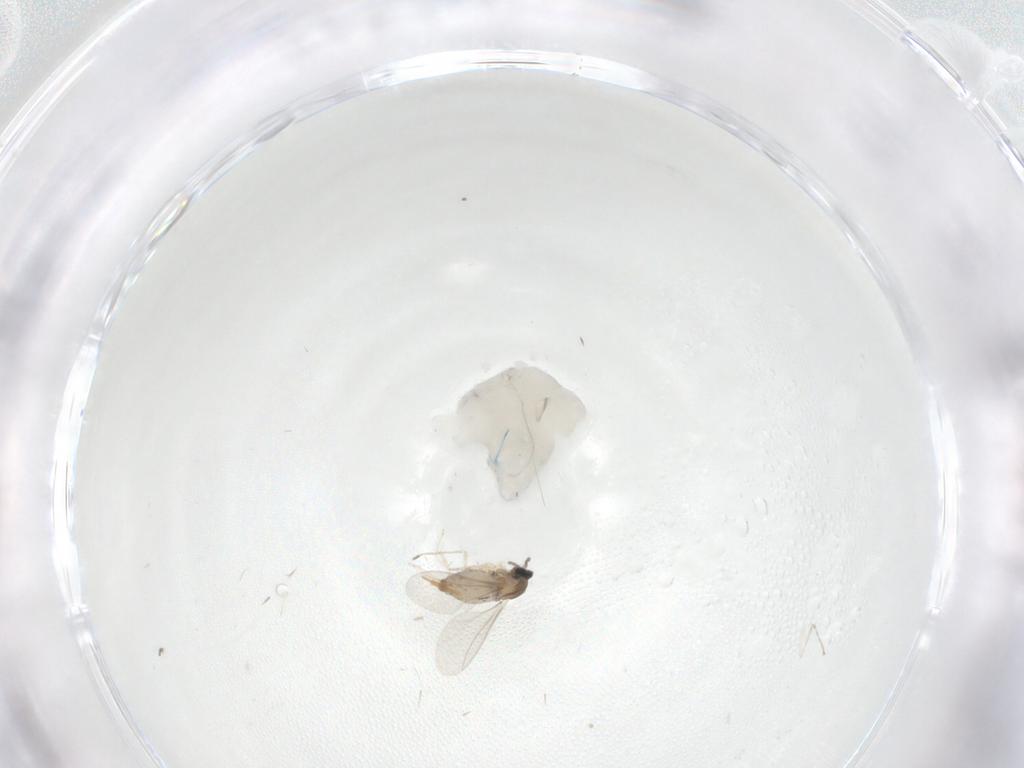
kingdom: Animalia
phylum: Arthropoda
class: Insecta
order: Diptera
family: Cecidomyiidae
